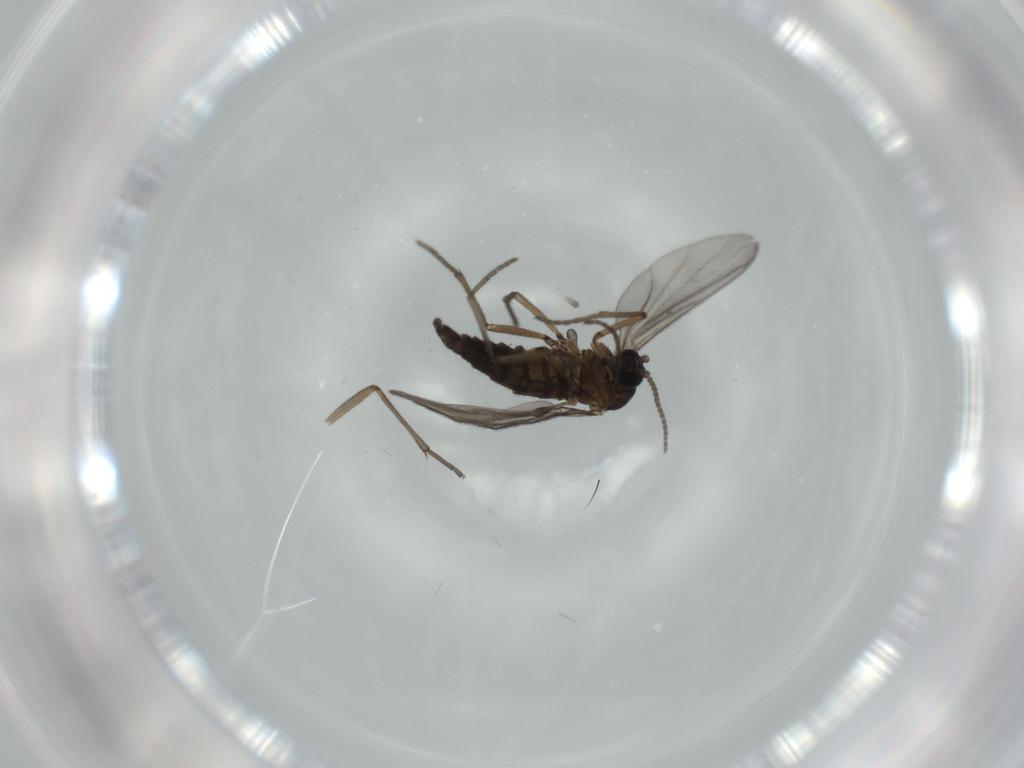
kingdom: Animalia
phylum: Arthropoda
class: Insecta
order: Diptera
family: Sciaridae
